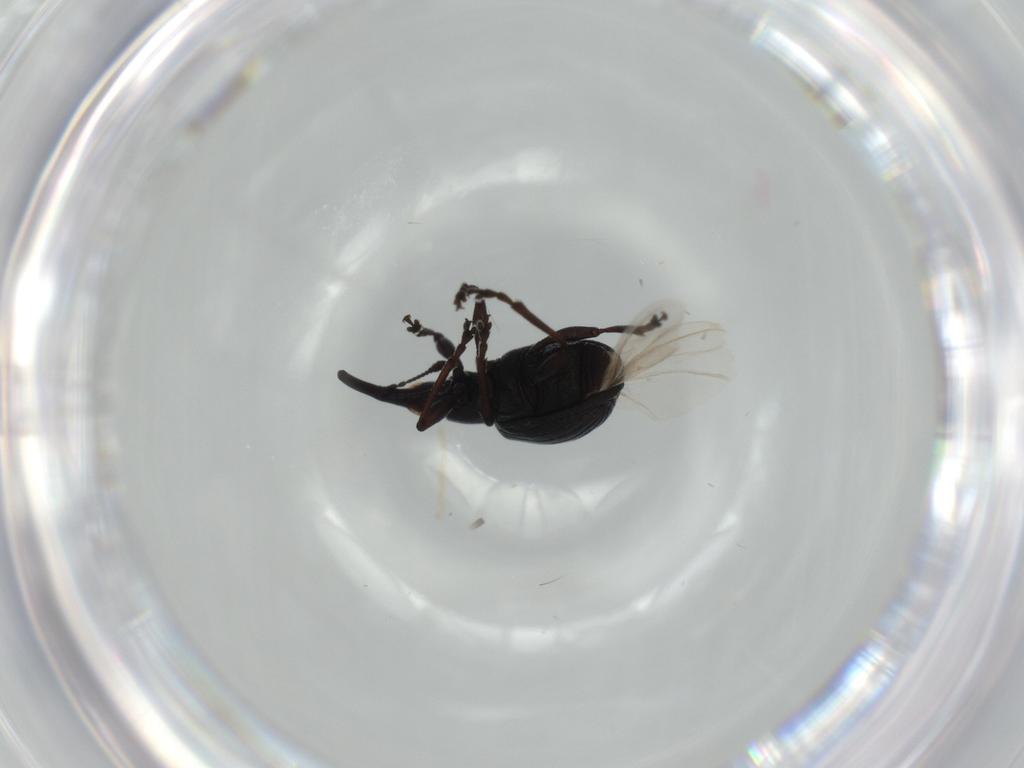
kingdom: Animalia
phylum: Arthropoda
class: Insecta
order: Coleoptera
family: Brentidae
